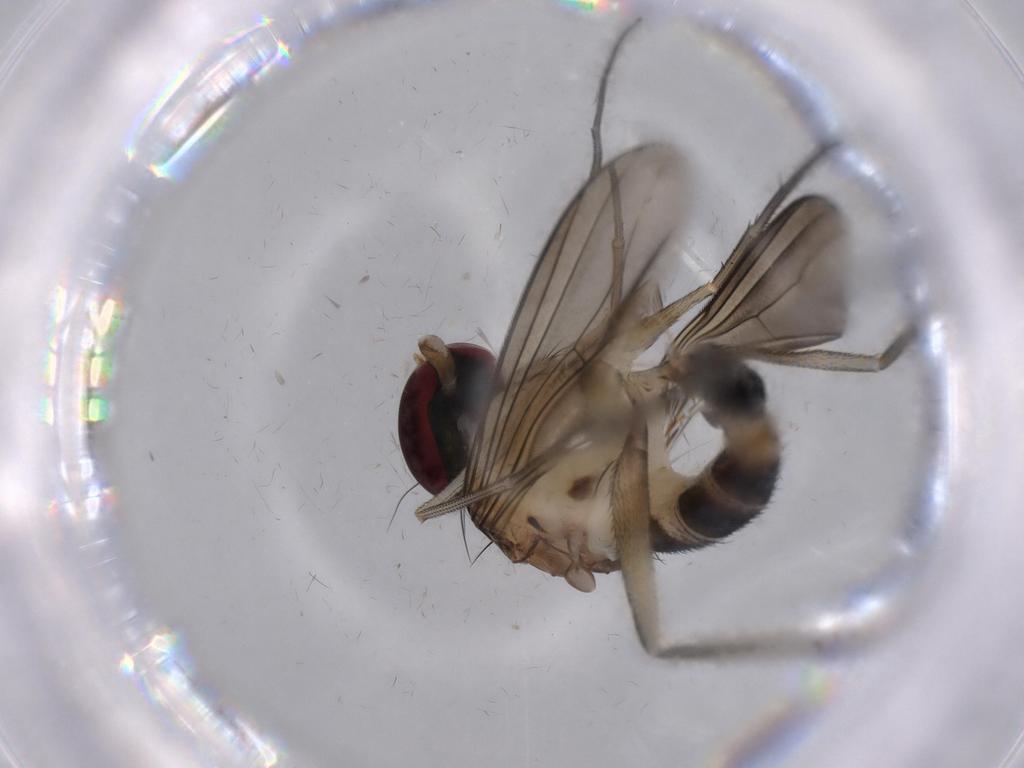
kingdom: Animalia
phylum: Arthropoda
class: Insecta
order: Diptera
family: Dolichopodidae
